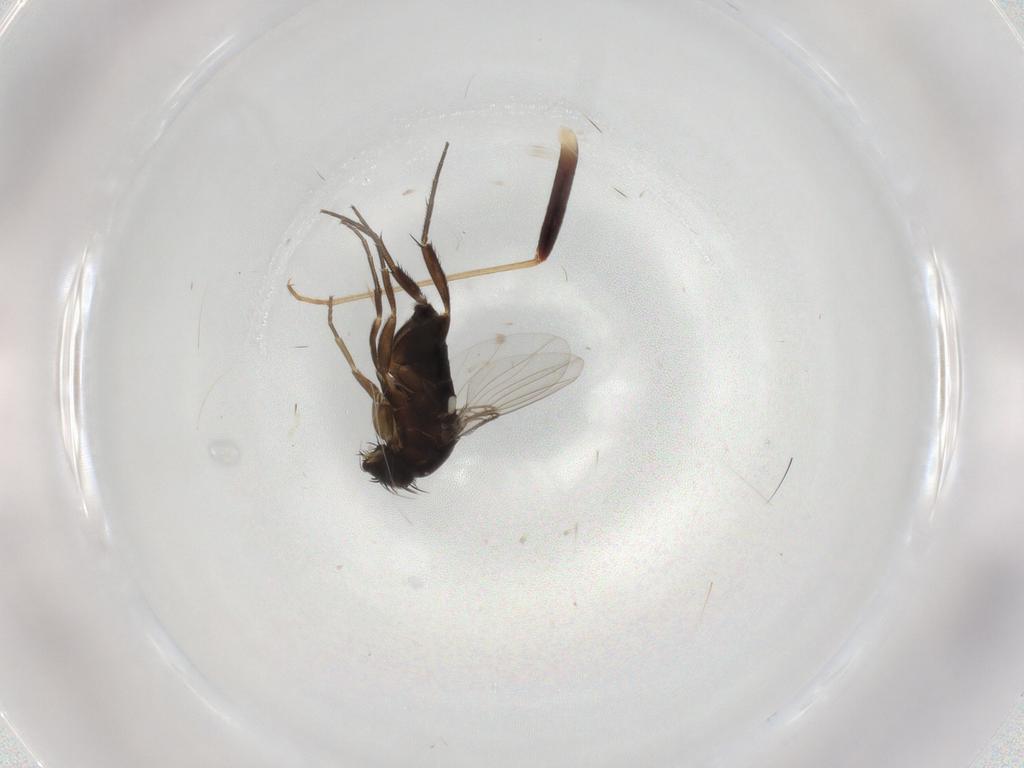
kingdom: Animalia
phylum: Arthropoda
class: Insecta
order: Diptera
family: Phoridae
